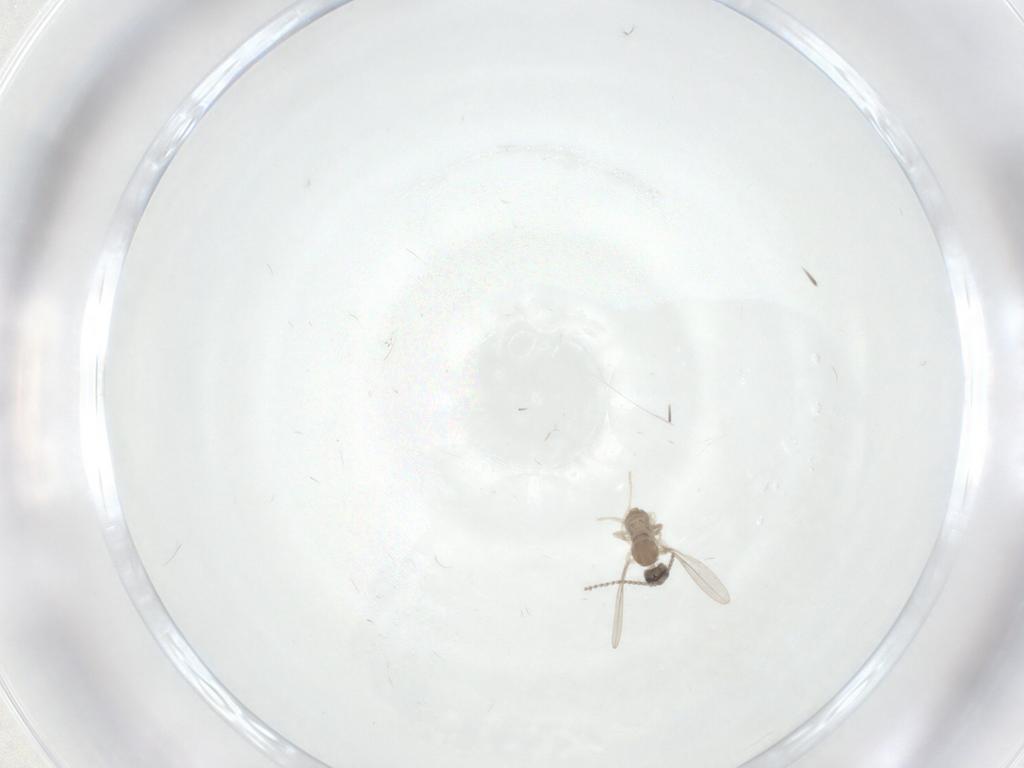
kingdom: Animalia
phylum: Arthropoda
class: Insecta
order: Diptera
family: Cecidomyiidae
